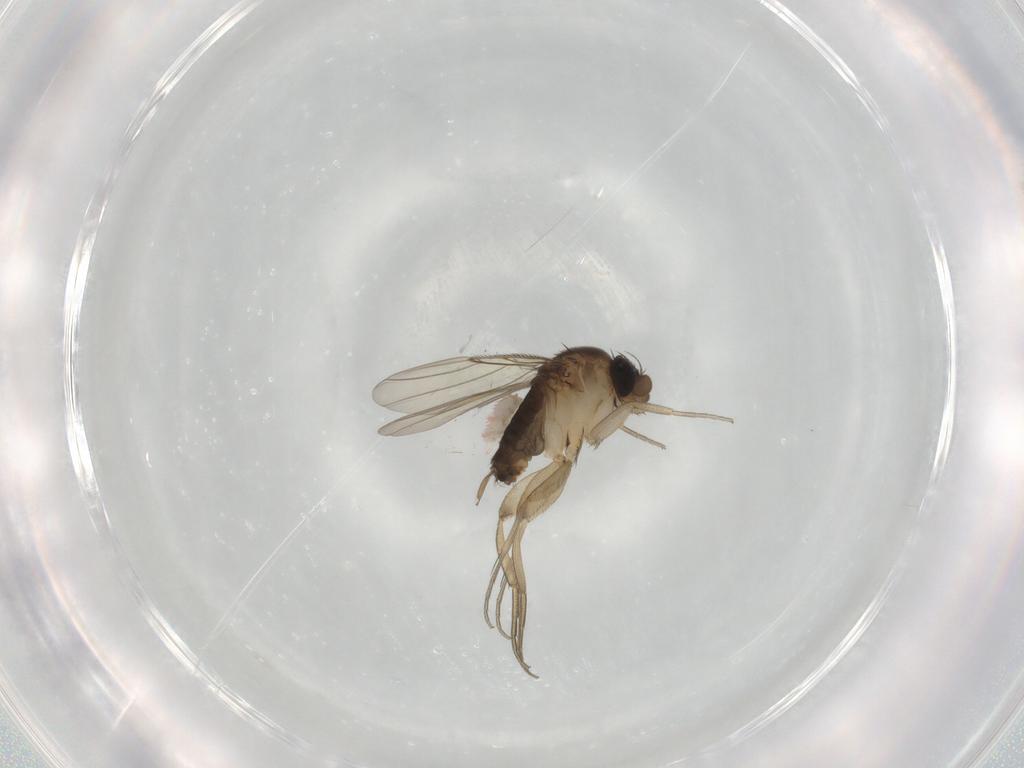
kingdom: Animalia
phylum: Arthropoda
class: Insecta
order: Diptera
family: Phoridae
